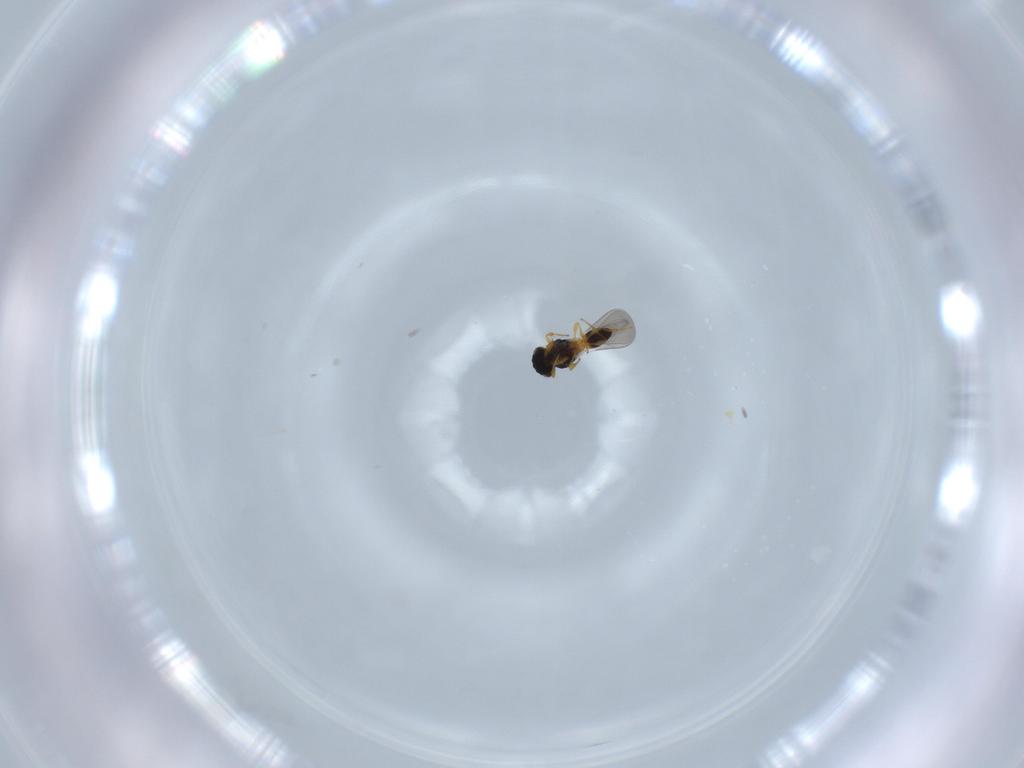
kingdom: Animalia
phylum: Arthropoda
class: Insecta
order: Hymenoptera
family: Platygastridae
